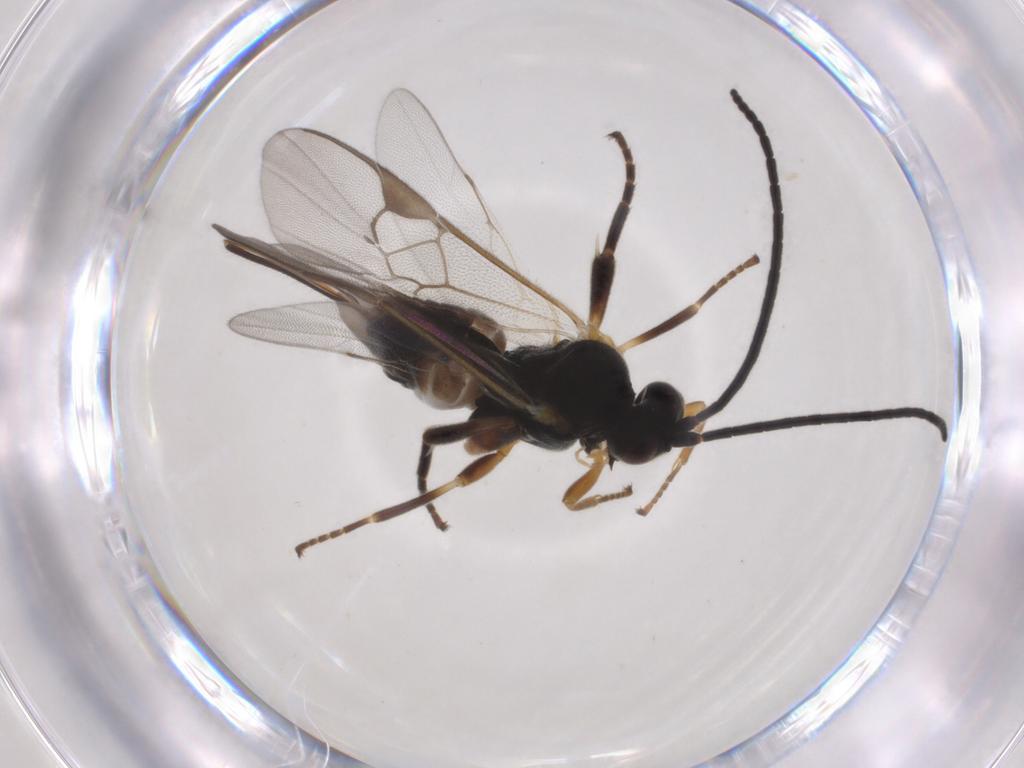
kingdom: Animalia
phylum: Arthropoda
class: Insecta
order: Hymenoptera
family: Braconidae
